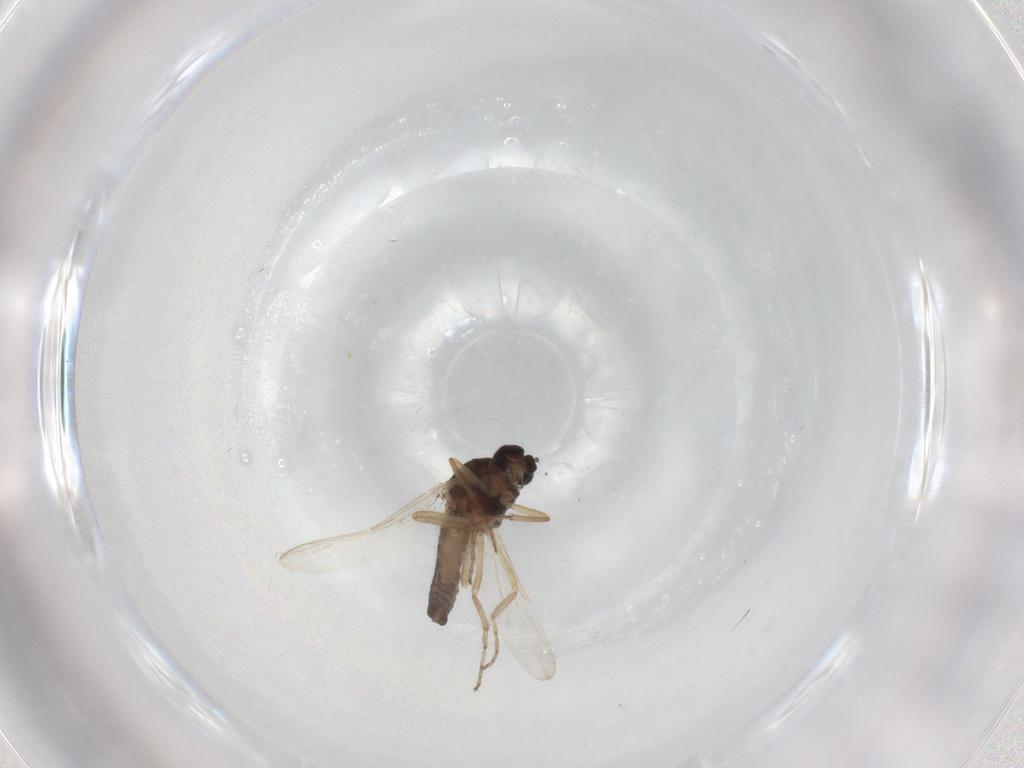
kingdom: Animalia
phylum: Arthropoda
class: Insecta
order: Diptera
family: Ceratopogonidae
